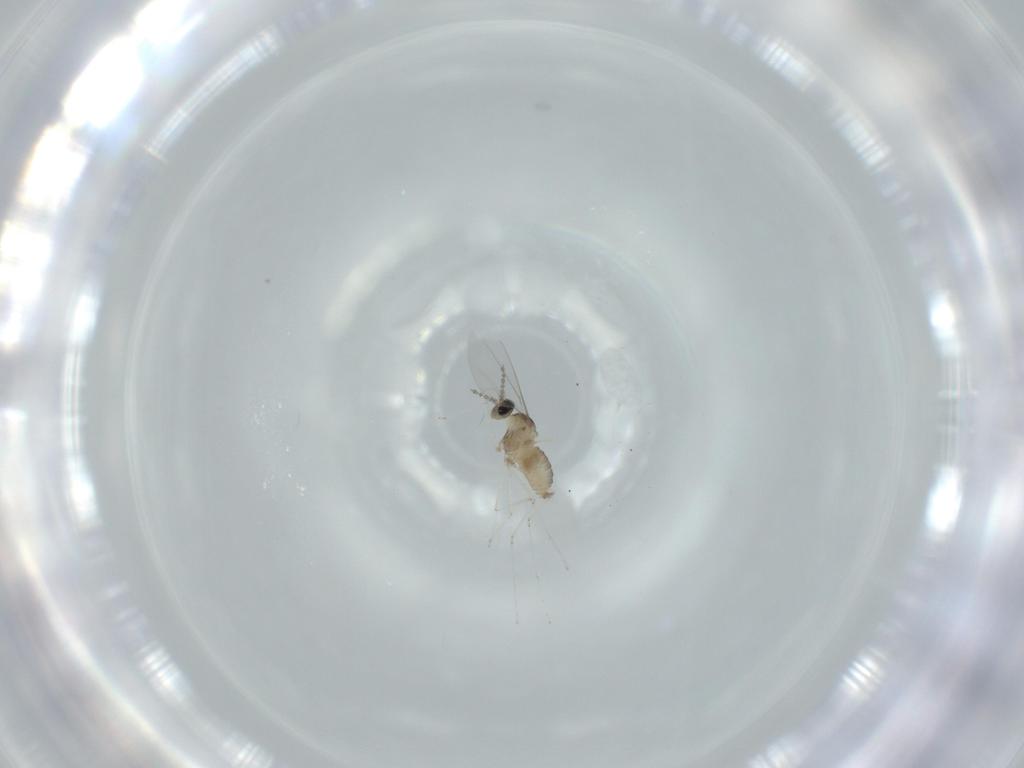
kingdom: Animalia
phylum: Arthropoda
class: Insecta
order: Diptera
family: Cecidomyiidae
